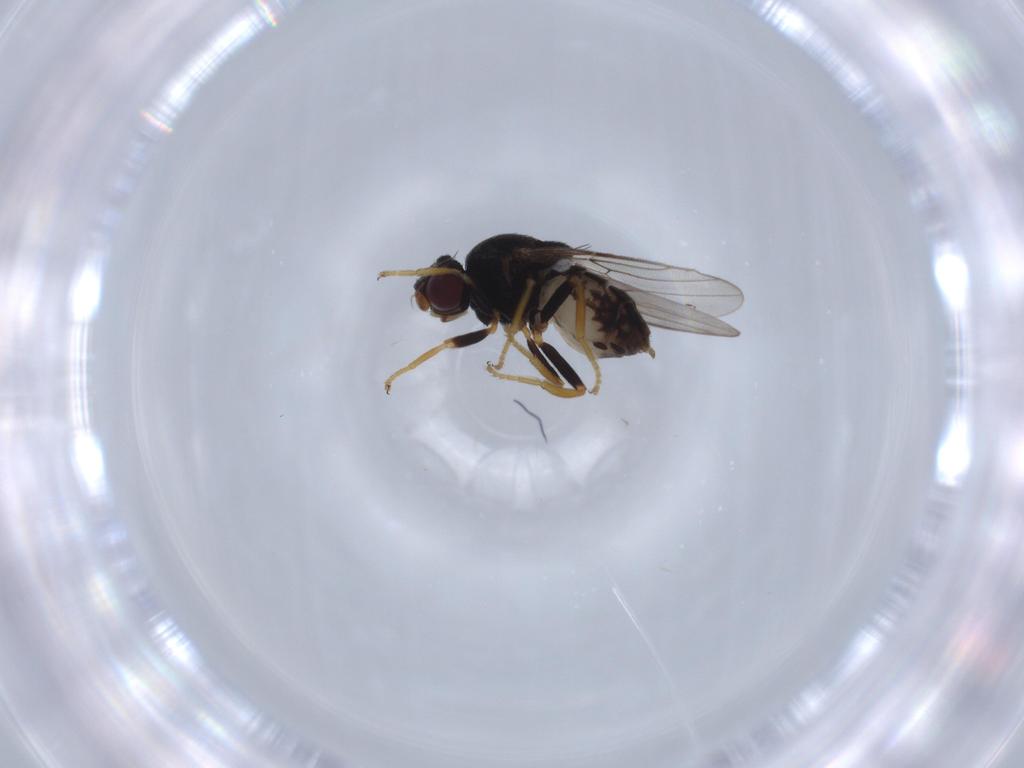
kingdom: Animalia
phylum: Arthropoda
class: Insecta
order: Diptera
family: Chloropidae
